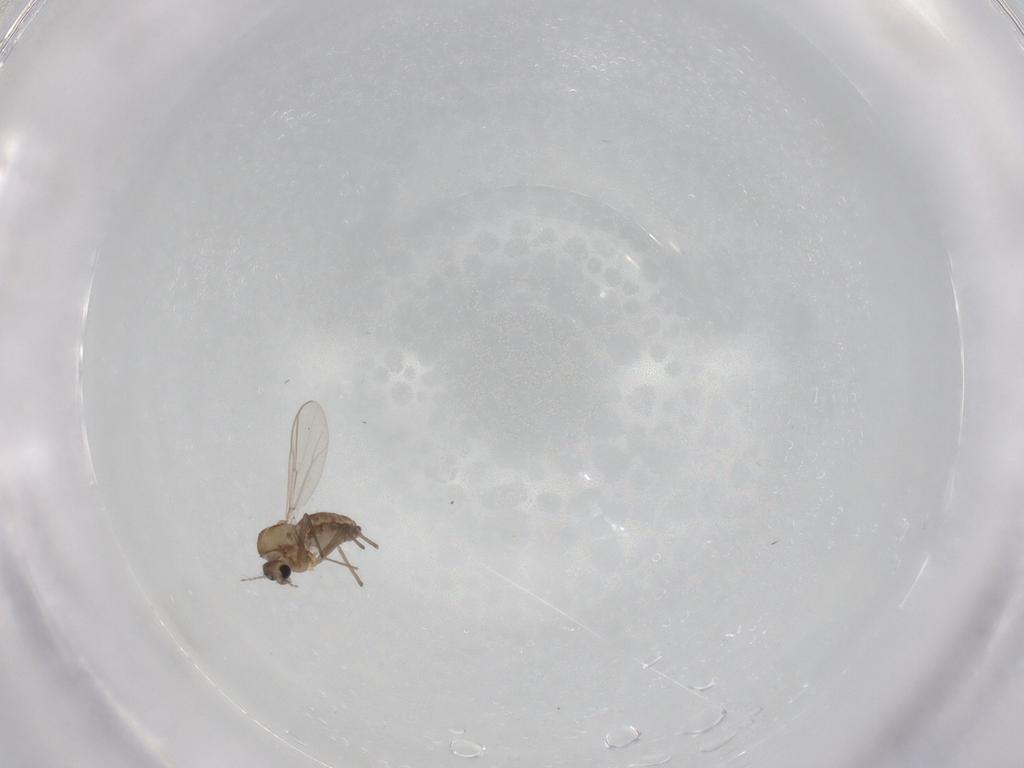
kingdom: Animalia
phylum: Arthropoda
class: Insecta
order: Diptera
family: Chironomidae
